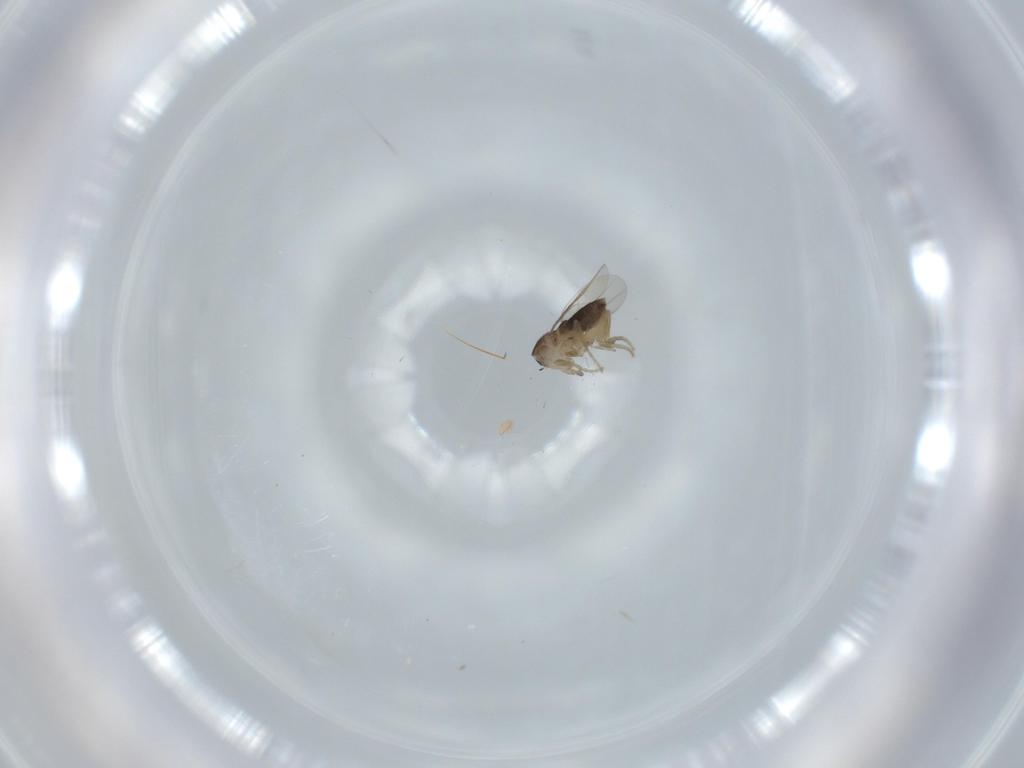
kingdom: Animalia
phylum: Arthropoda
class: Insecta
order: Diptera
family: Phoridae
